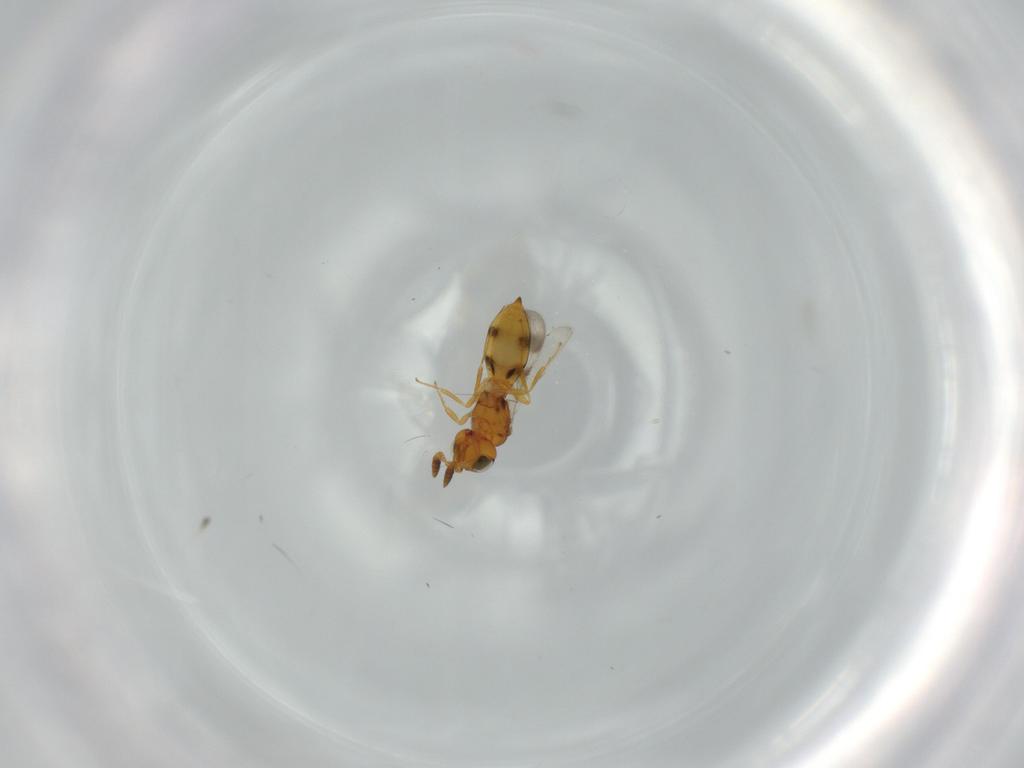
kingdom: Animalia
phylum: Arthropoda
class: Insecta
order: Hymenoptera
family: Scelionidae
